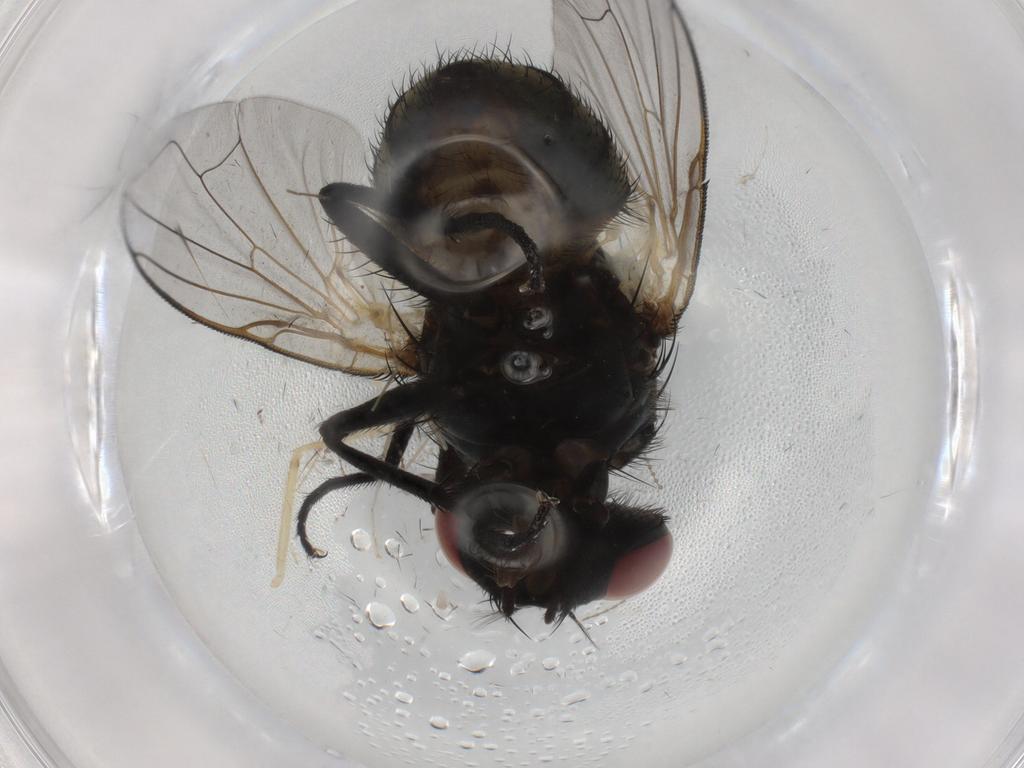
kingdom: Animalia
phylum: Arthropoda
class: Insecta
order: Diptera
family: Muscidae
